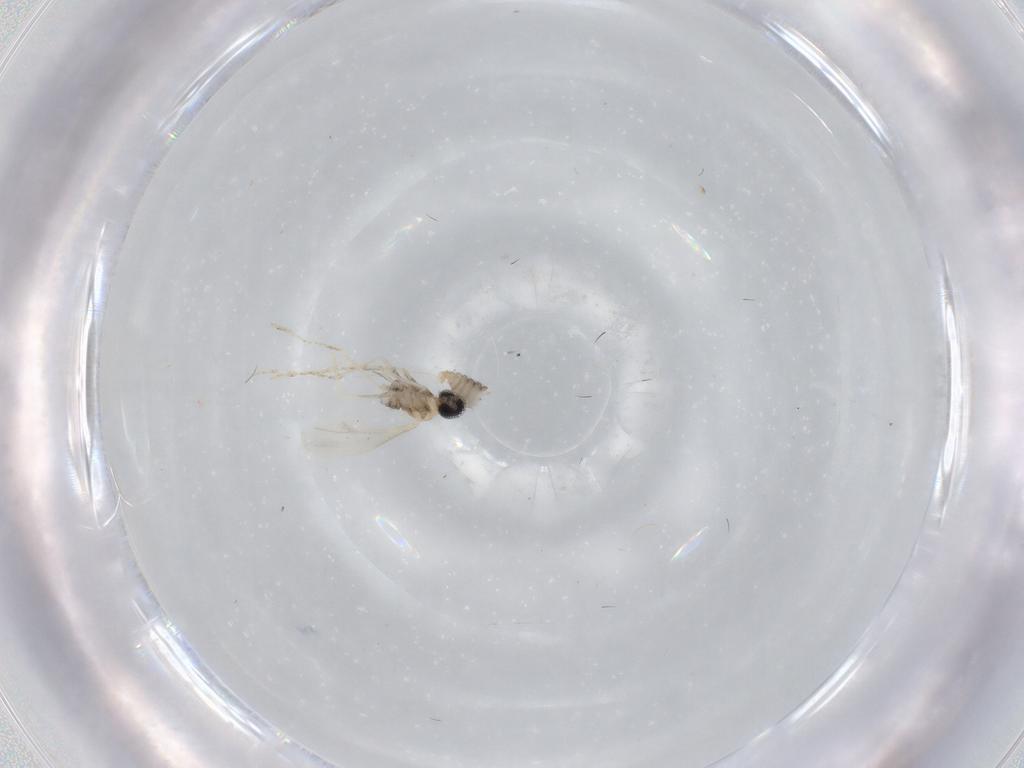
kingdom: Animalia
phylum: Arthropoda
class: Insecta
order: Diptera
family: Cecidomyiidae
